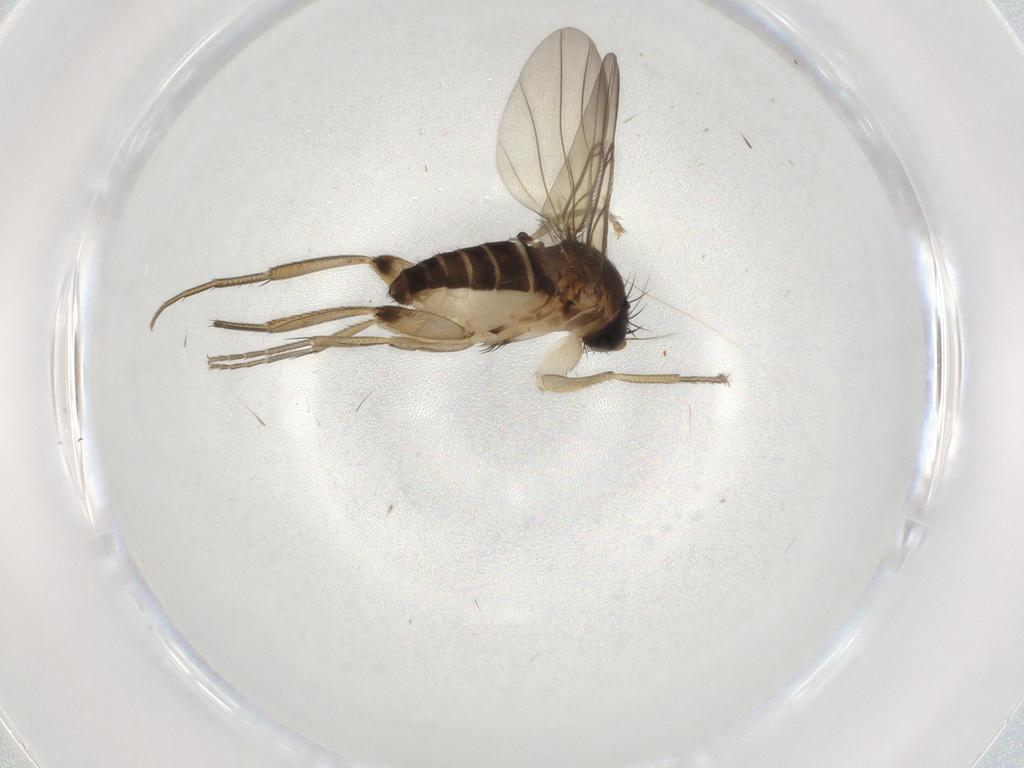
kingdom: Animalia
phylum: Arthropoda
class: Insecta
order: Diptera
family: Phoridae
